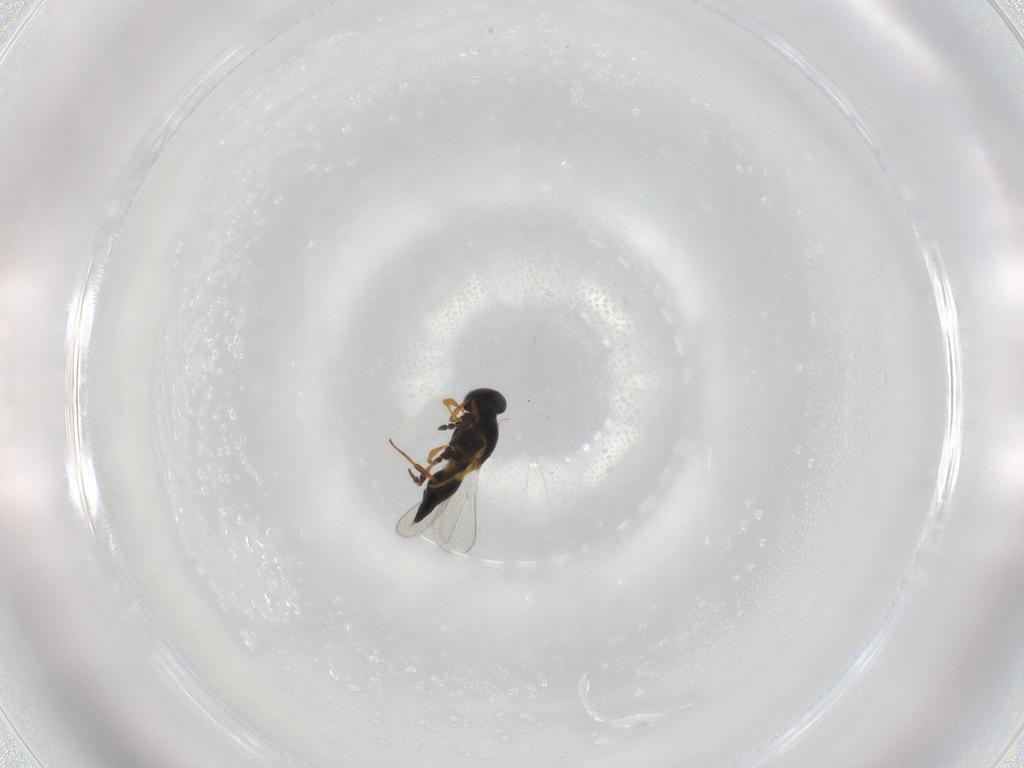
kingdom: Animalia
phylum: Arthropoda
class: Insecta
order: Hymenoptera
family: Platygastridae
